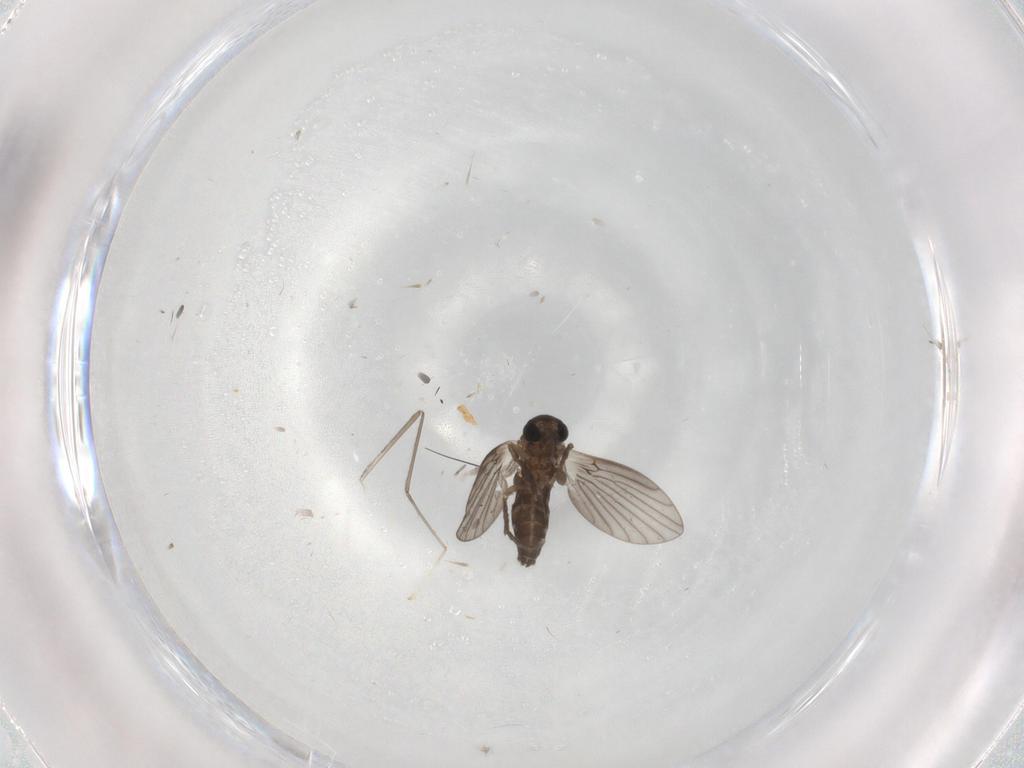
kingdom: Animalia
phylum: Arthropoda
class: Insecta
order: Diptera
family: Cecidomyiidae
